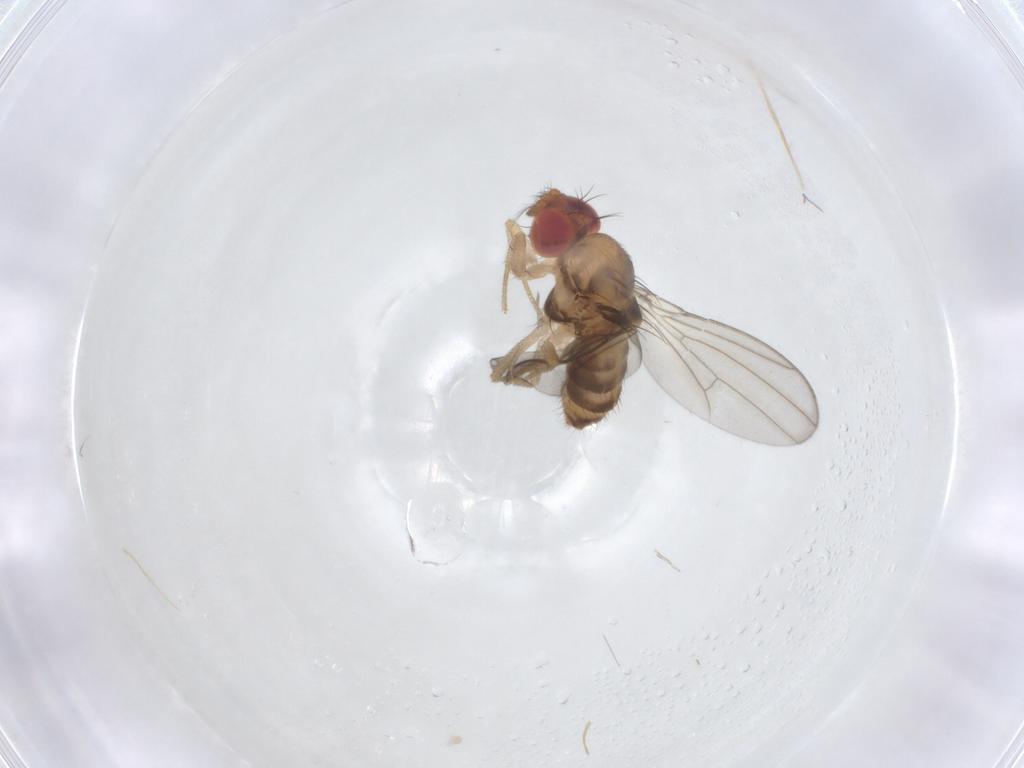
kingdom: Animalia
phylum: Arthropoda
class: Insecta
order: Diptera
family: Drosophilidae
